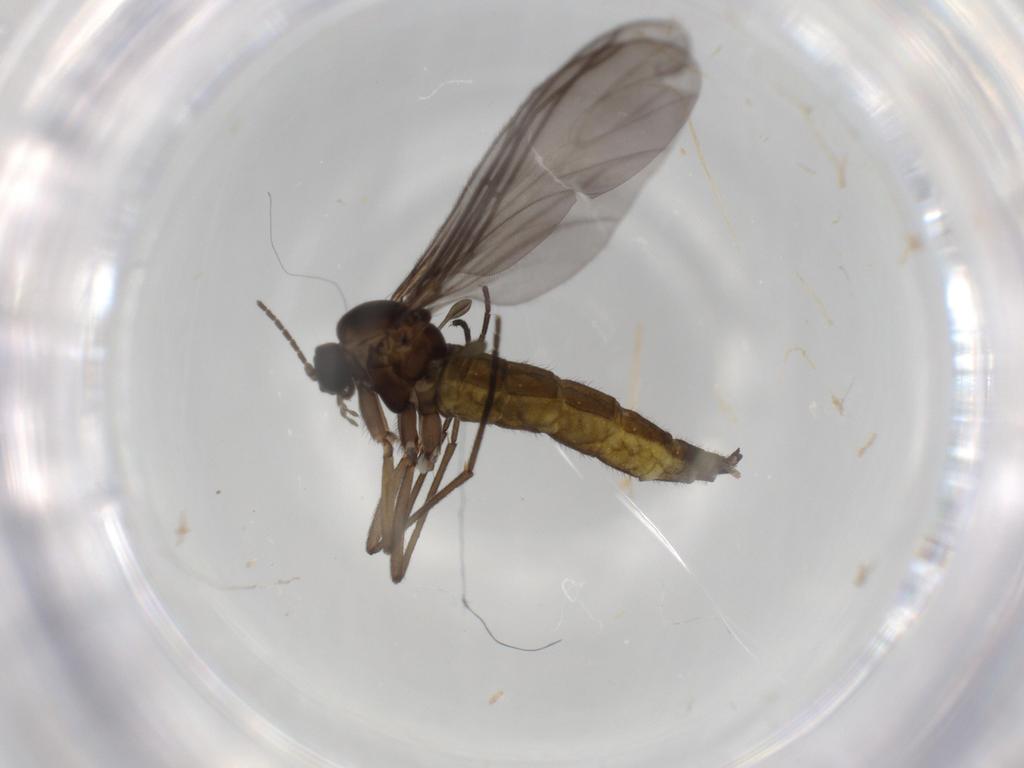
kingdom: Animalia
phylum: Arthropoda
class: Insecta
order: Diptera
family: Sciaridae
